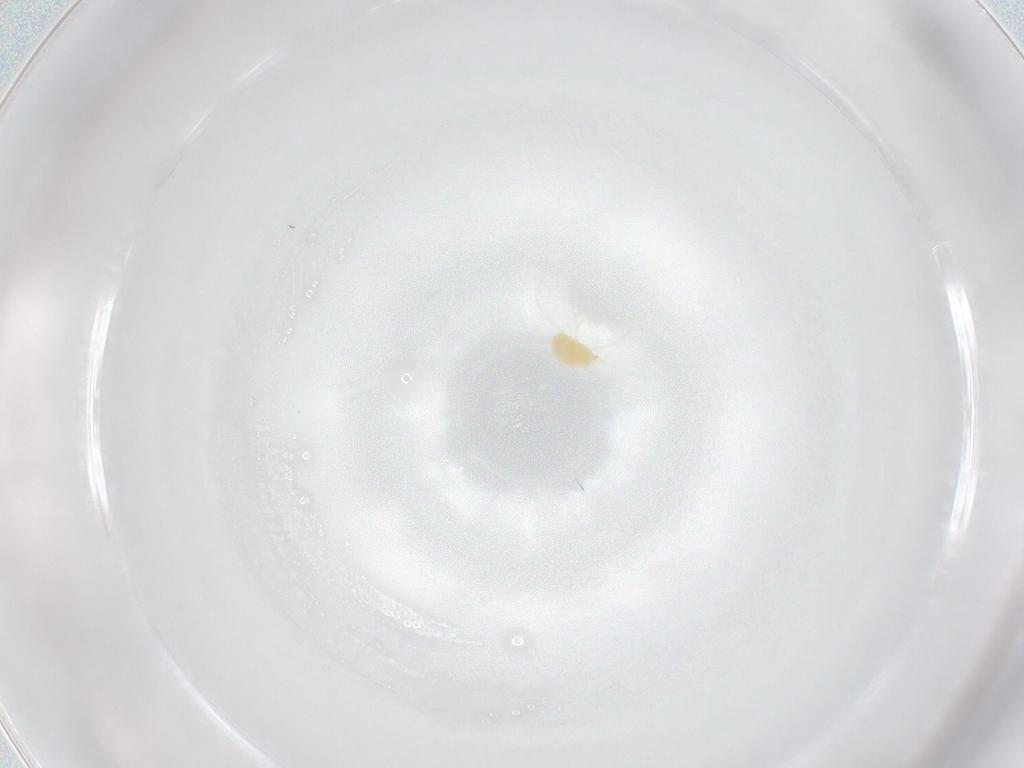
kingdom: Animalia
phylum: Arthropoda
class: Arachnida
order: Trombidiformes
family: Tetranychidae
